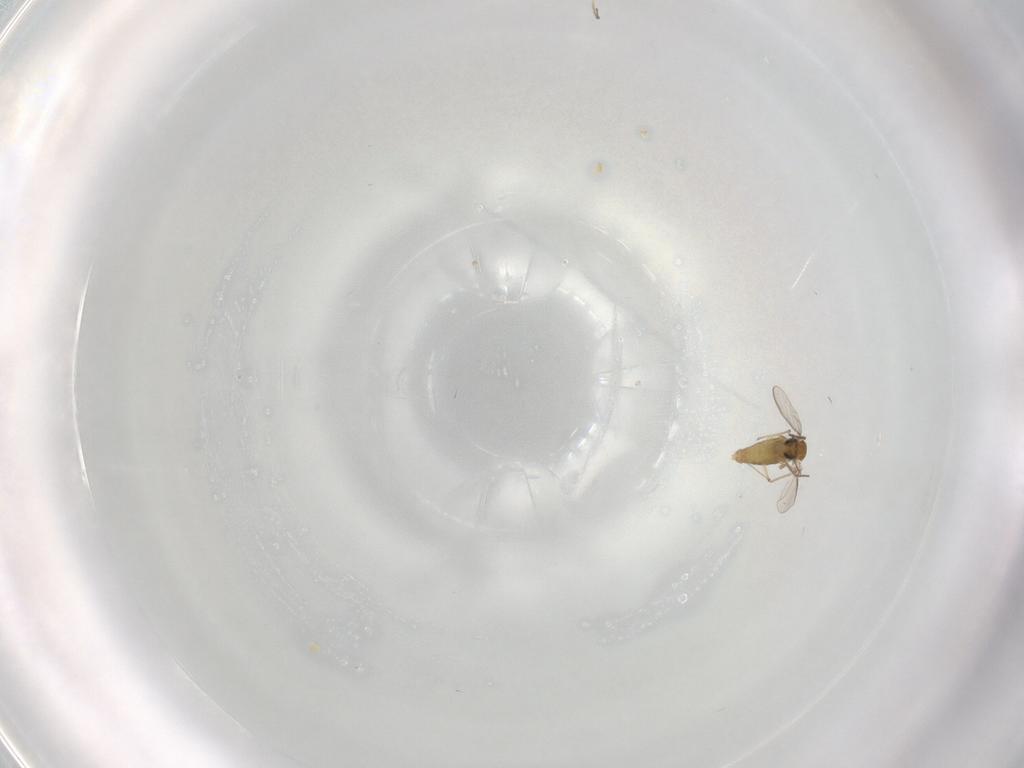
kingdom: Animalia
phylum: Arthropoda
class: Insecta
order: Diptera
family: Chironomidae
